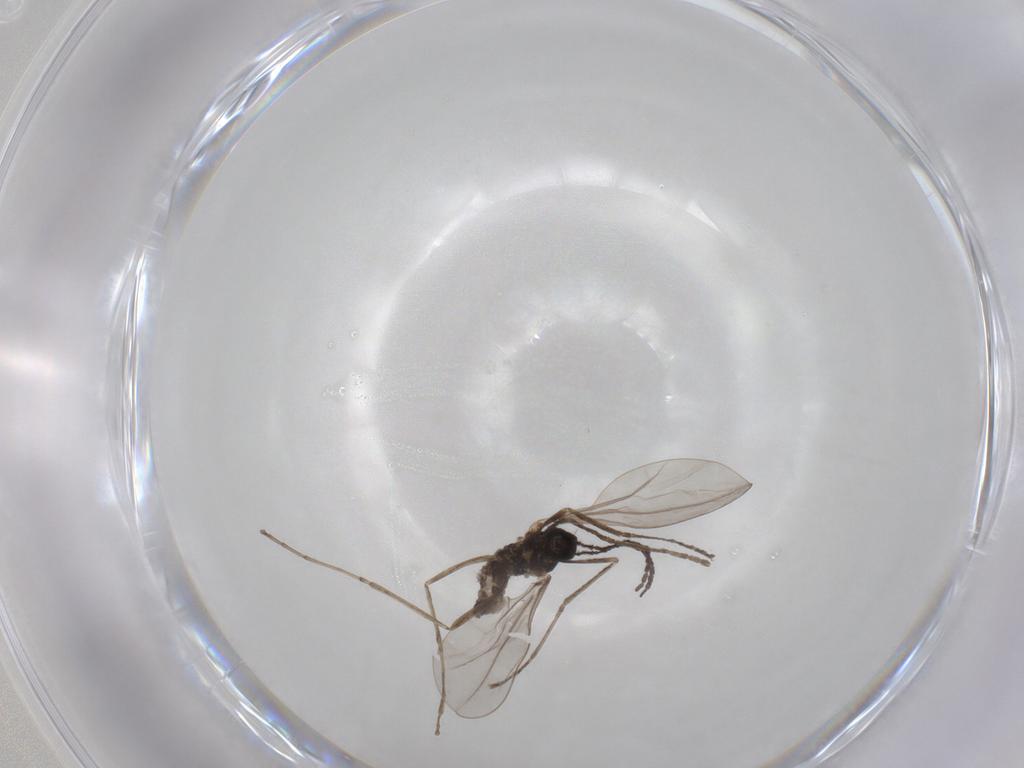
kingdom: Animalia
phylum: Arthropoda
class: Insecta
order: Diptera
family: Cecidomyiidae
